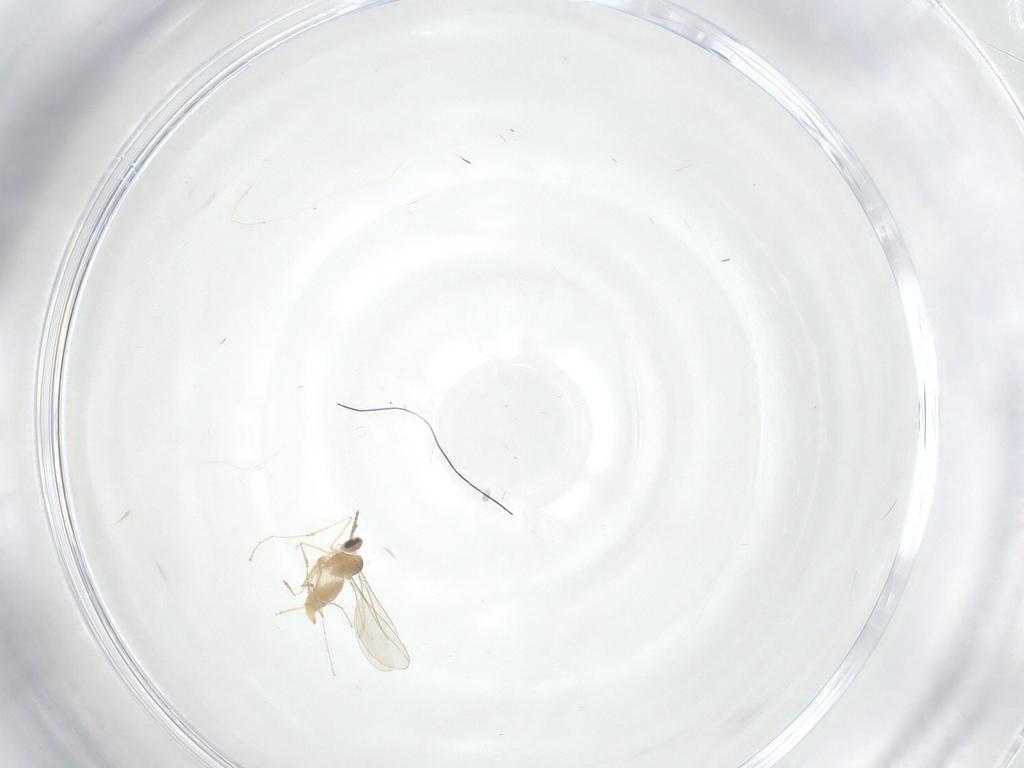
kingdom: Animalia
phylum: Arthropoda
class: Insecta
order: Diptera
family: Cecidomyiidae
